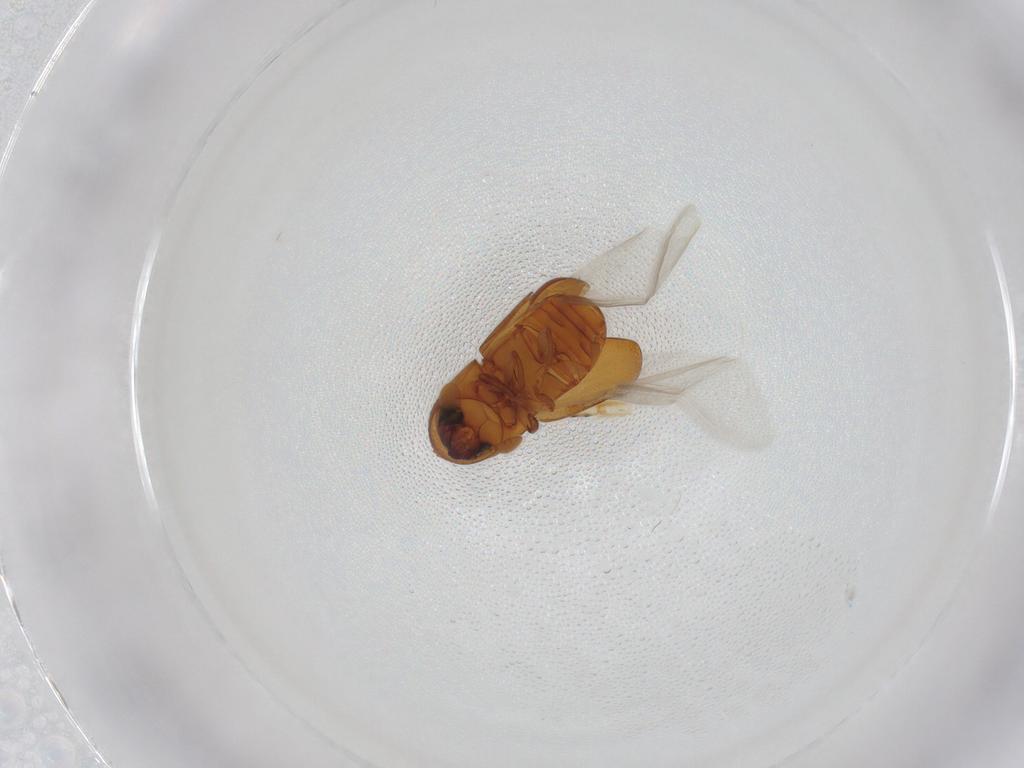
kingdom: Animalia
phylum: Arthropoda
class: Insecta
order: Coleoptera
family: Curculionidae
